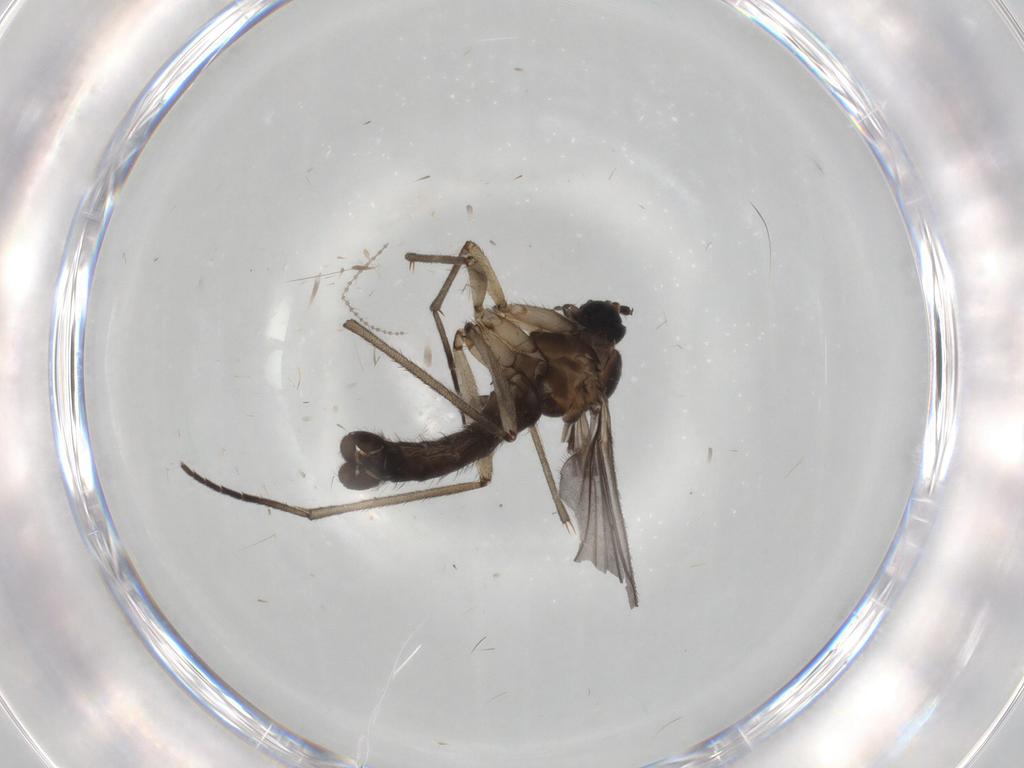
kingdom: Animalia
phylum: Arthropoda
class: Insecta
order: Diptera
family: Sciaridae
